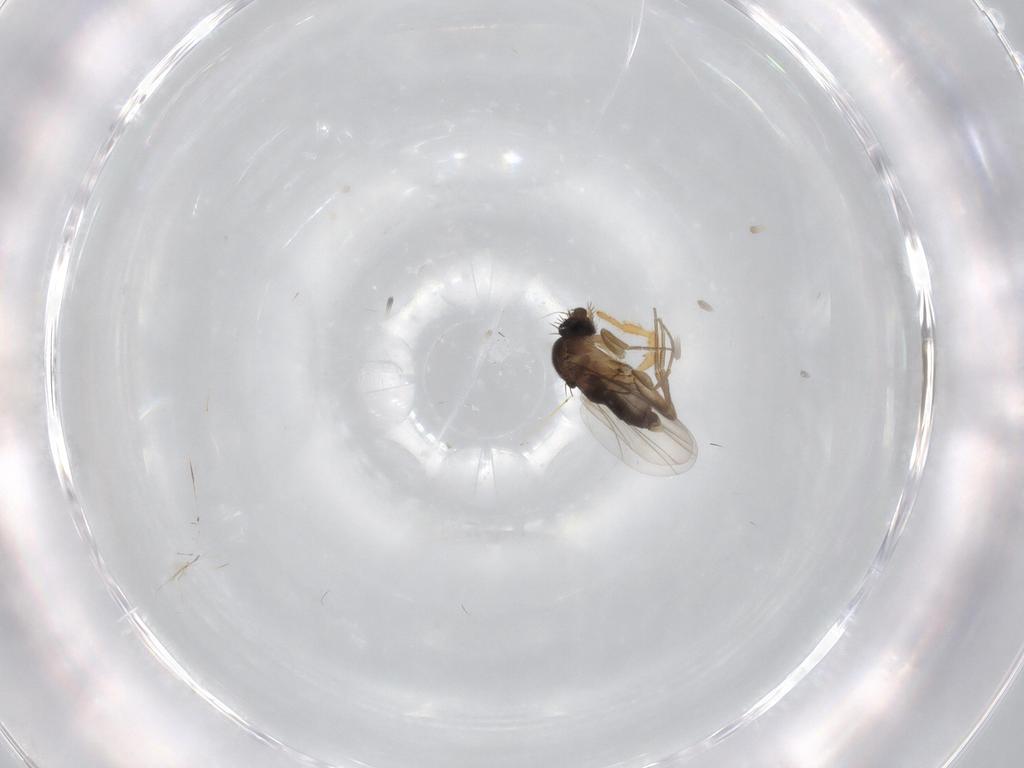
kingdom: Animalia
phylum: Arthropoda
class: Insecta
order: Diptera
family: Phoridae
